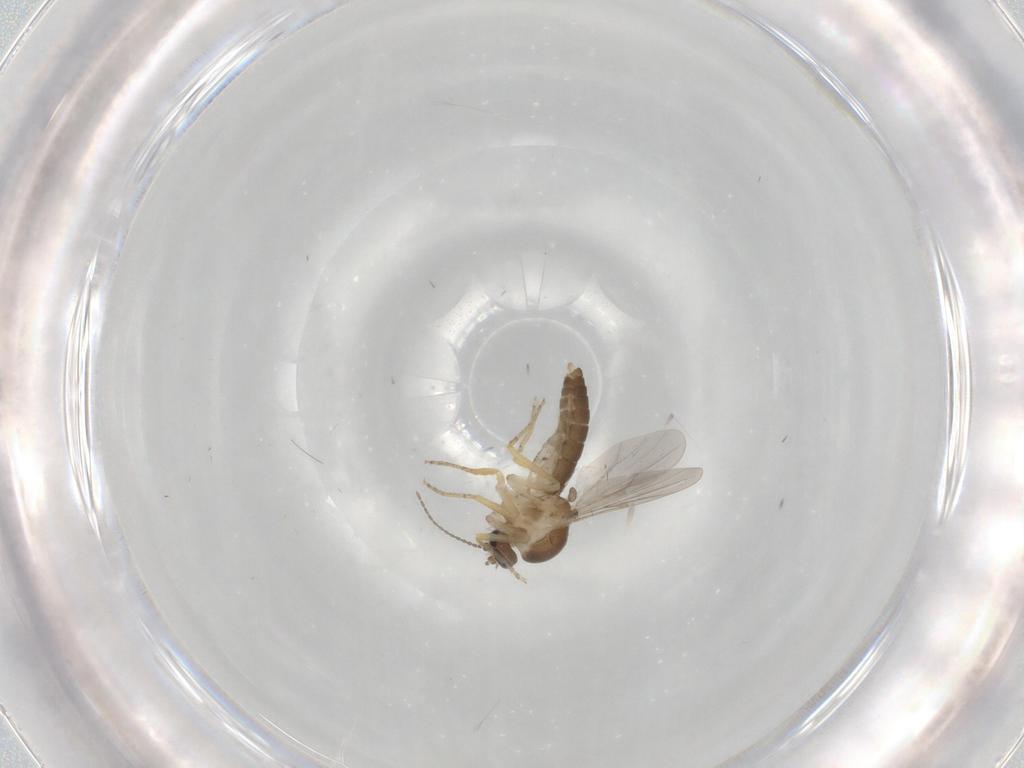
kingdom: Animalia
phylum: Arthropoda
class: Insecta
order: Diptera
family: Ceratopogonidae
